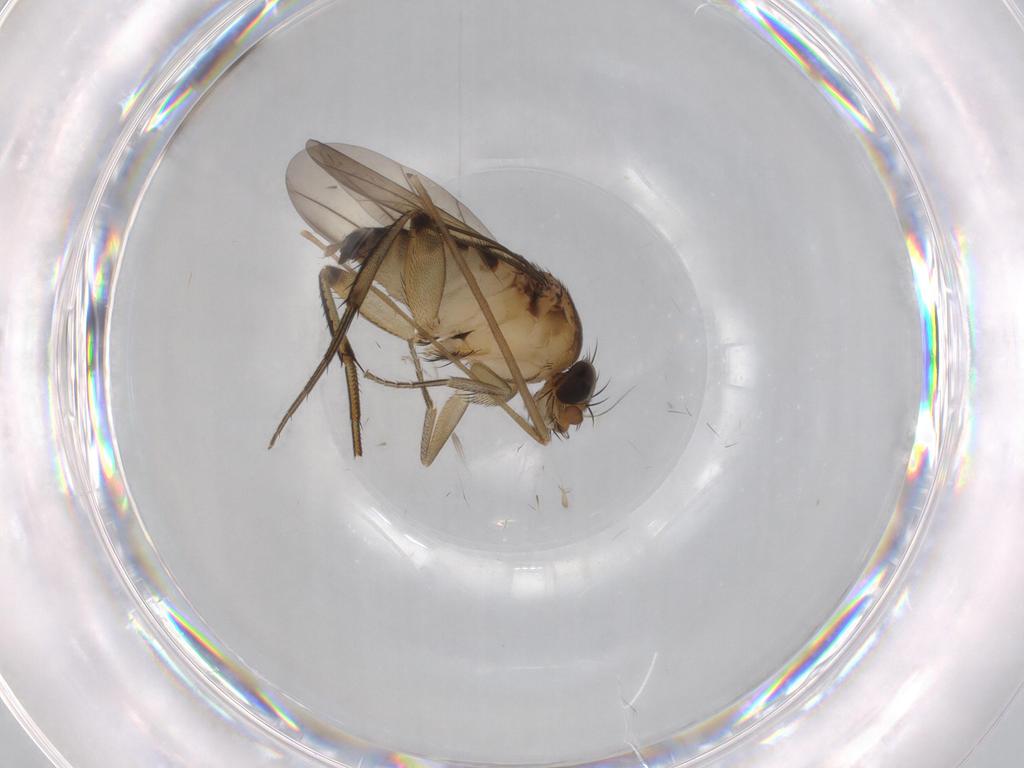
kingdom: Animalia
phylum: Arthropoda
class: Insecta
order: Diptera
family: Limoniidae
